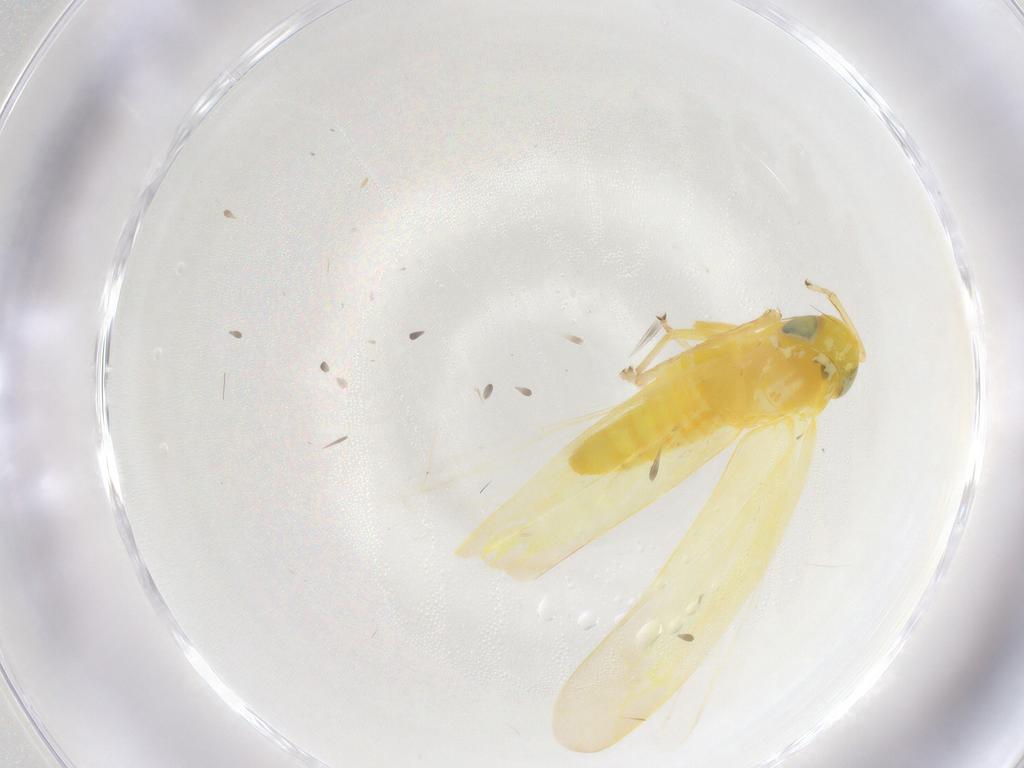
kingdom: Animalia
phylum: Arthropoda
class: Insecta
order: Hemiptera
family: Cicadellidae
